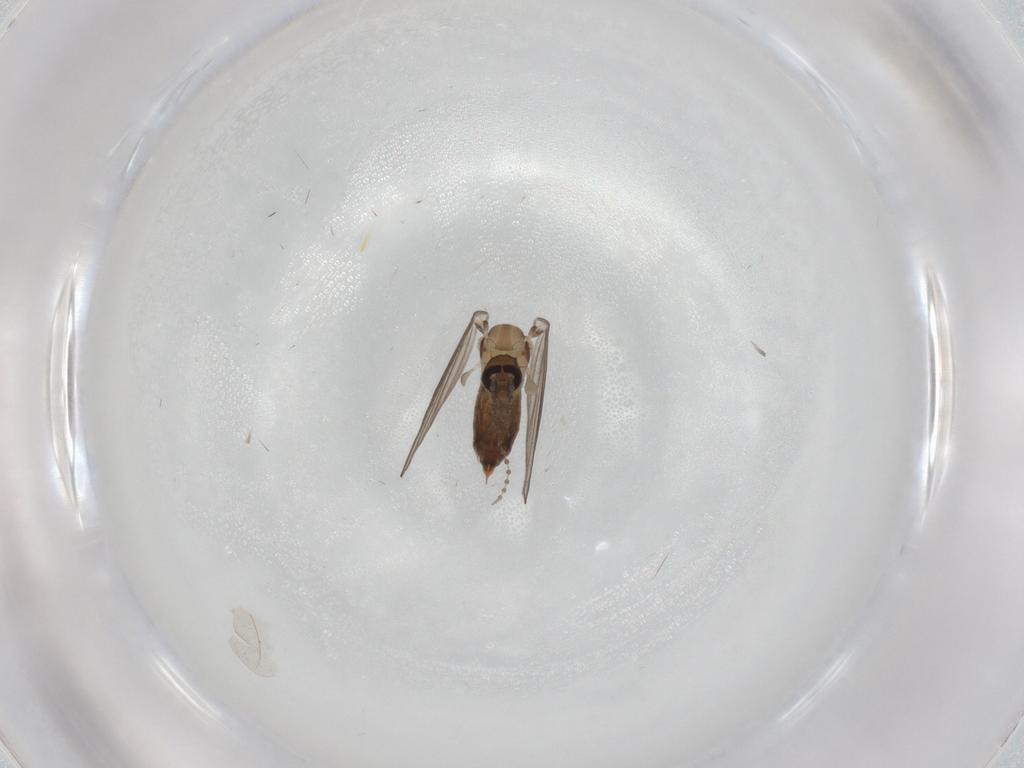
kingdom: Animalia
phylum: Arthropoda
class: Insecta
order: Diptera
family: Psychodidae
